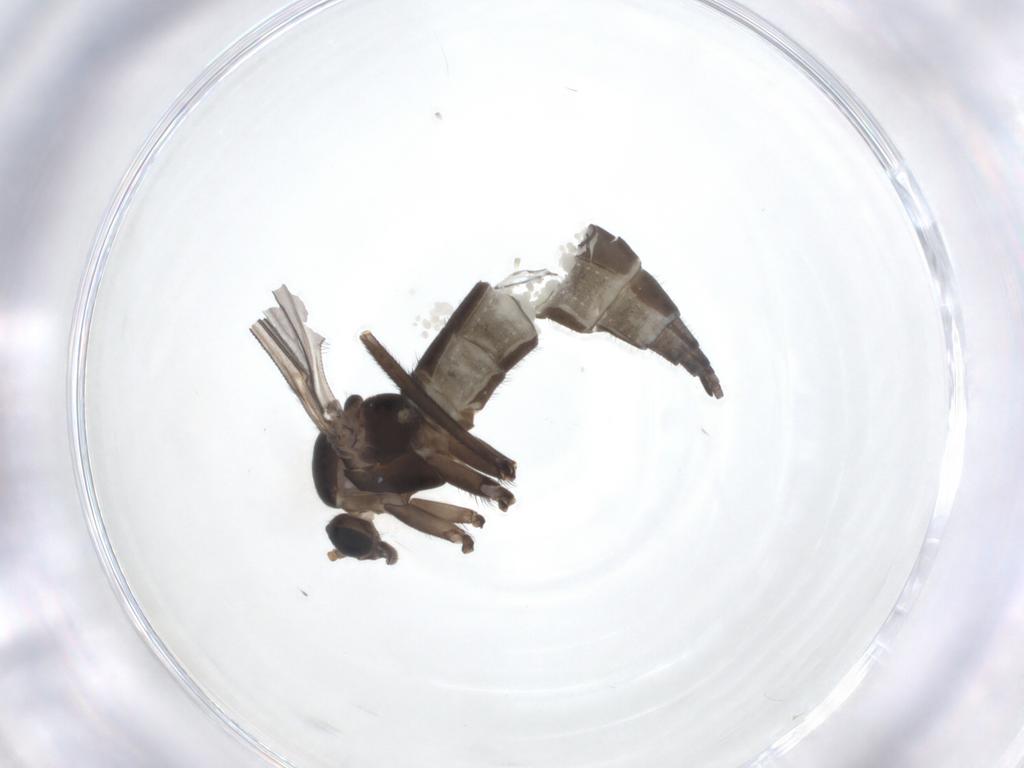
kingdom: Animalia
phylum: Arthropoda
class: Insecta
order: Diptera
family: Sciaridae
